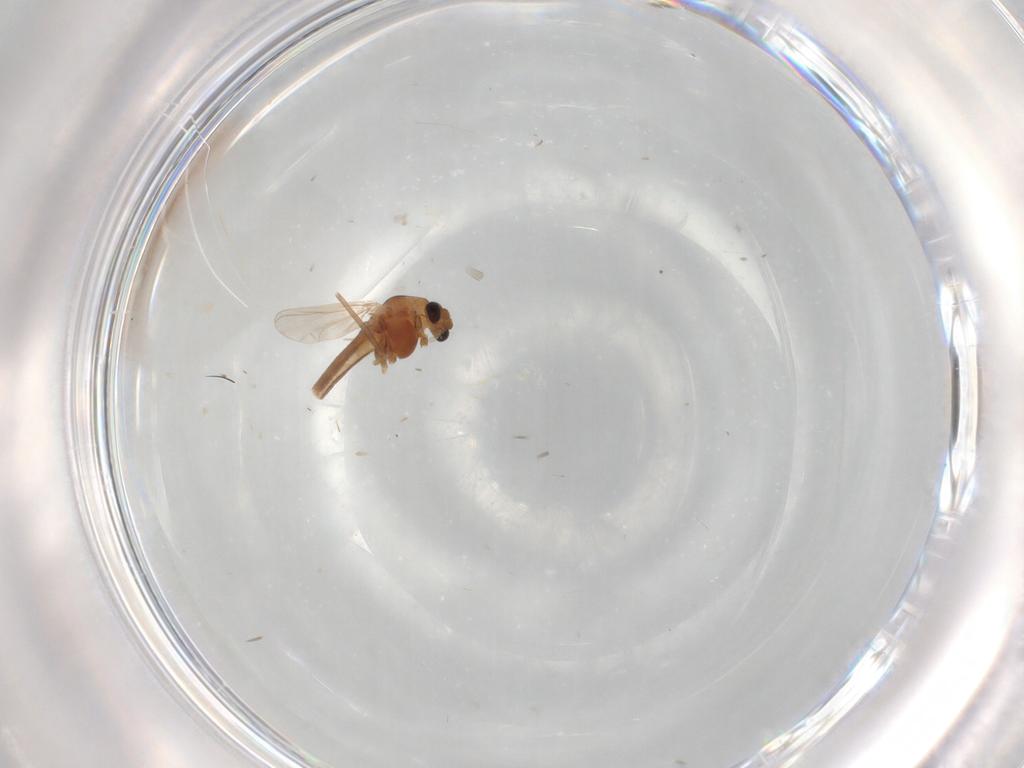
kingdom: Animalia
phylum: Arthropoda
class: Insecta
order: Diptera
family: Chironomidae
